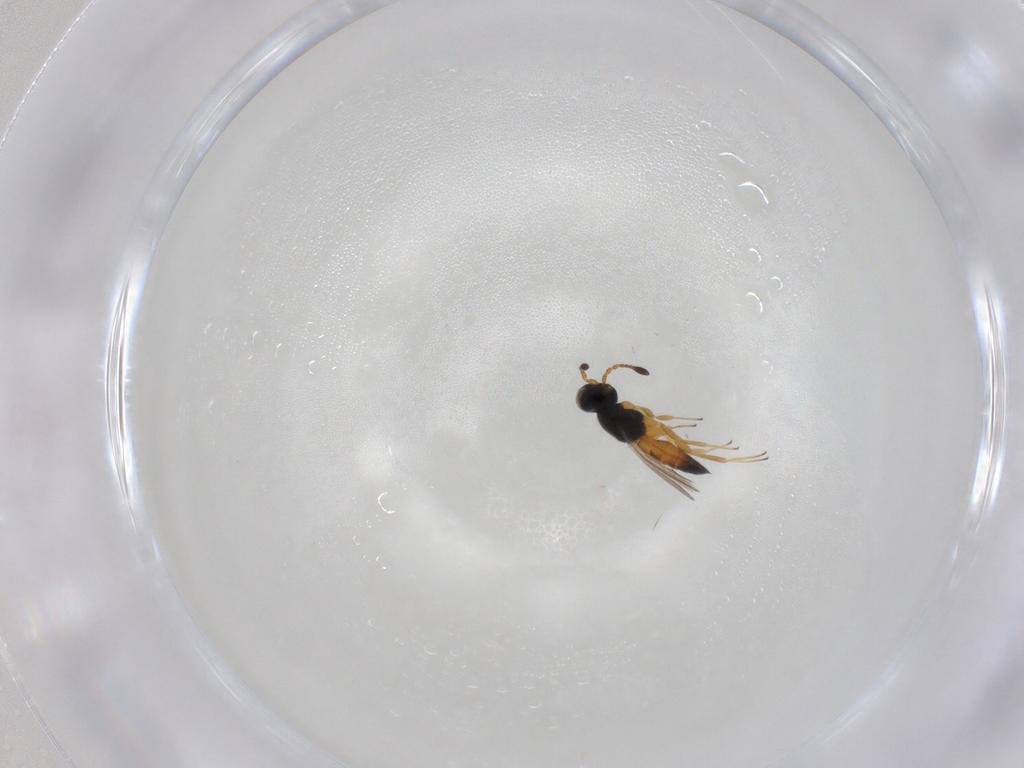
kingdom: Animalia
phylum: Arthropoda
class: Insecta
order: Hymenoptera
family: Scelionidae
